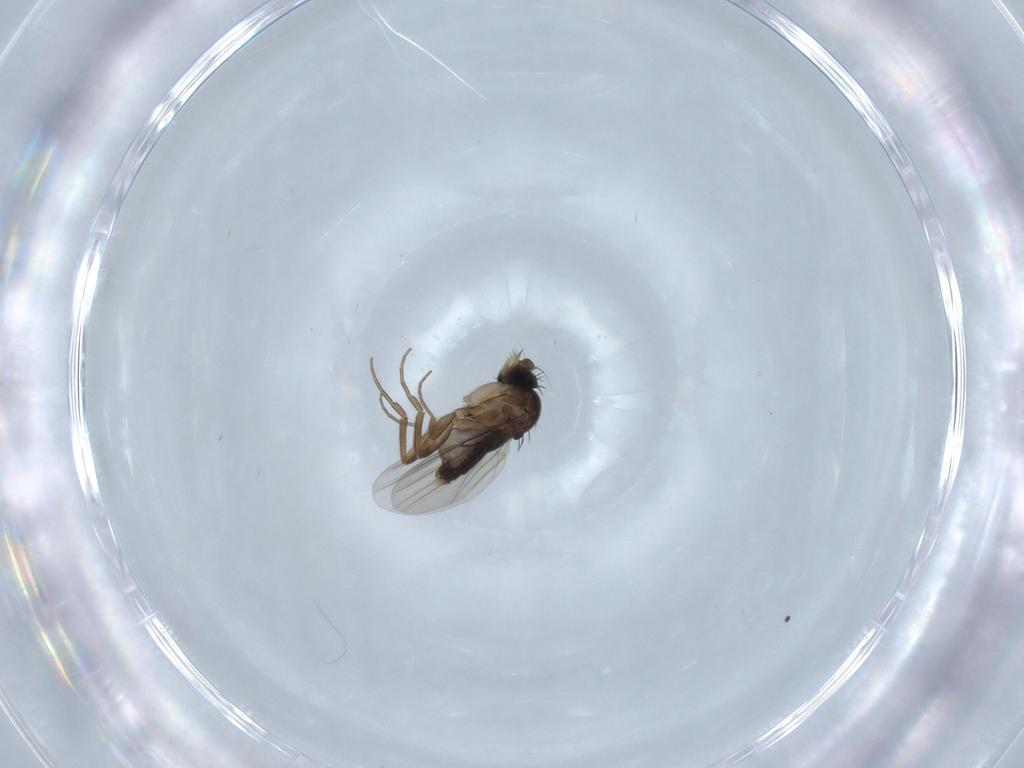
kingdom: Animalia
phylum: Arthropoda
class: Insecta
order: Diptera
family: Phoridae
